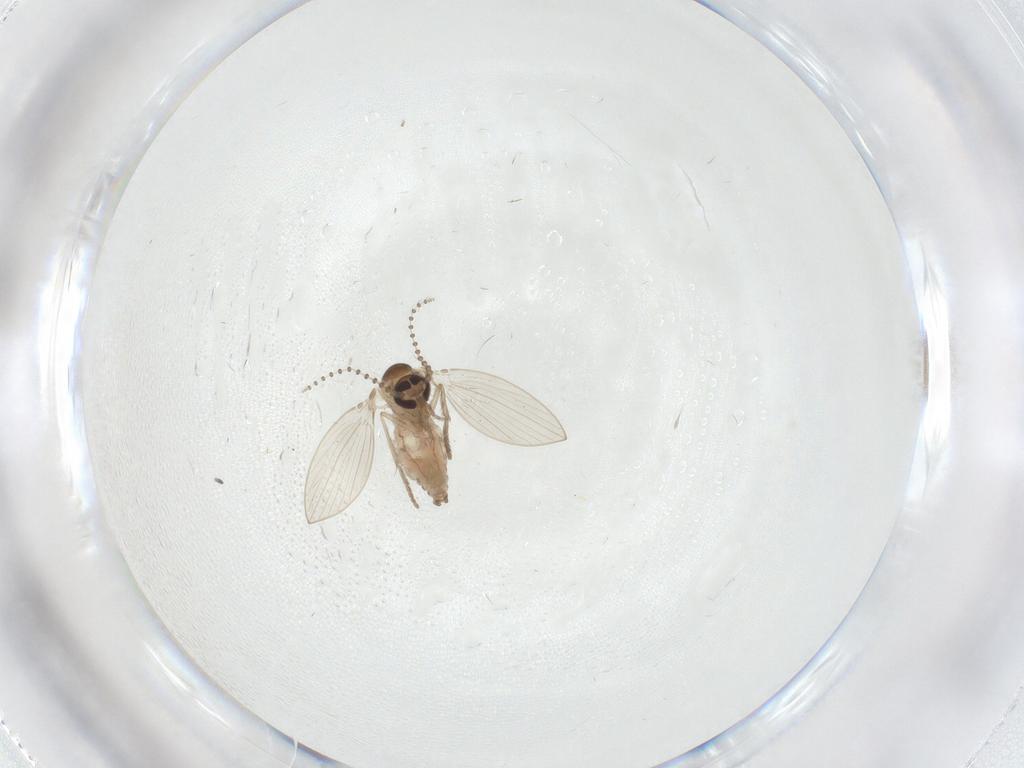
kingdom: Animalia
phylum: Arthropoda
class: Insecta
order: Diptera
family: Psychodidae
